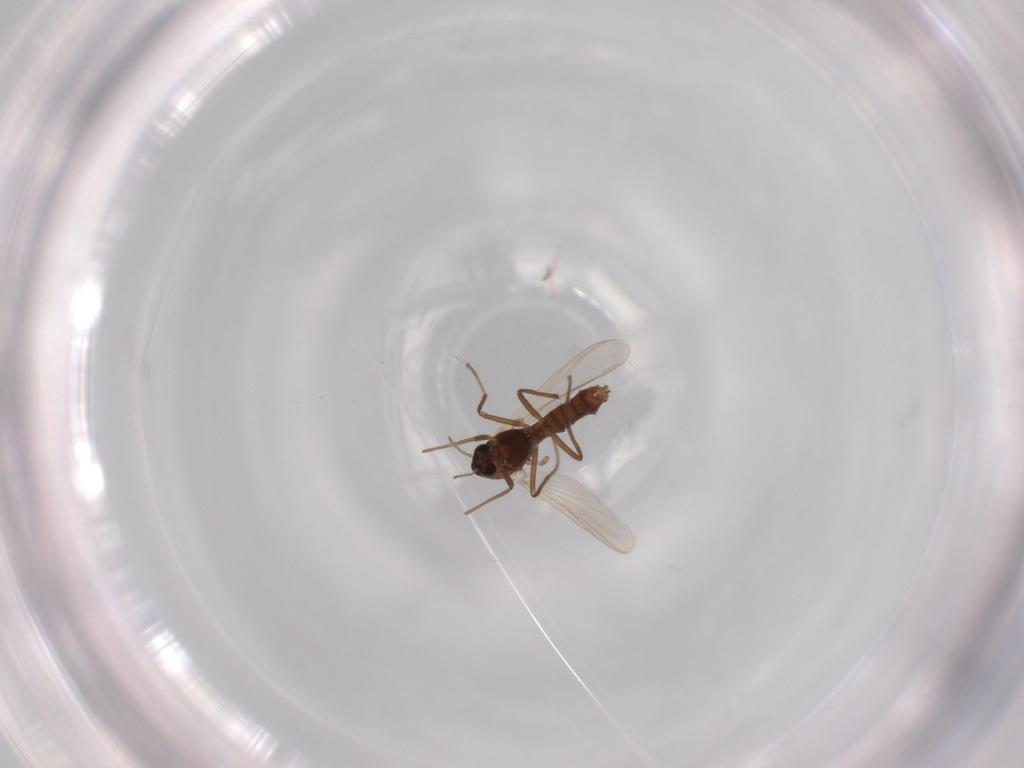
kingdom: Animalia
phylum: Arthropoda
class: Insecta
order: Diptera
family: Chironomidae
